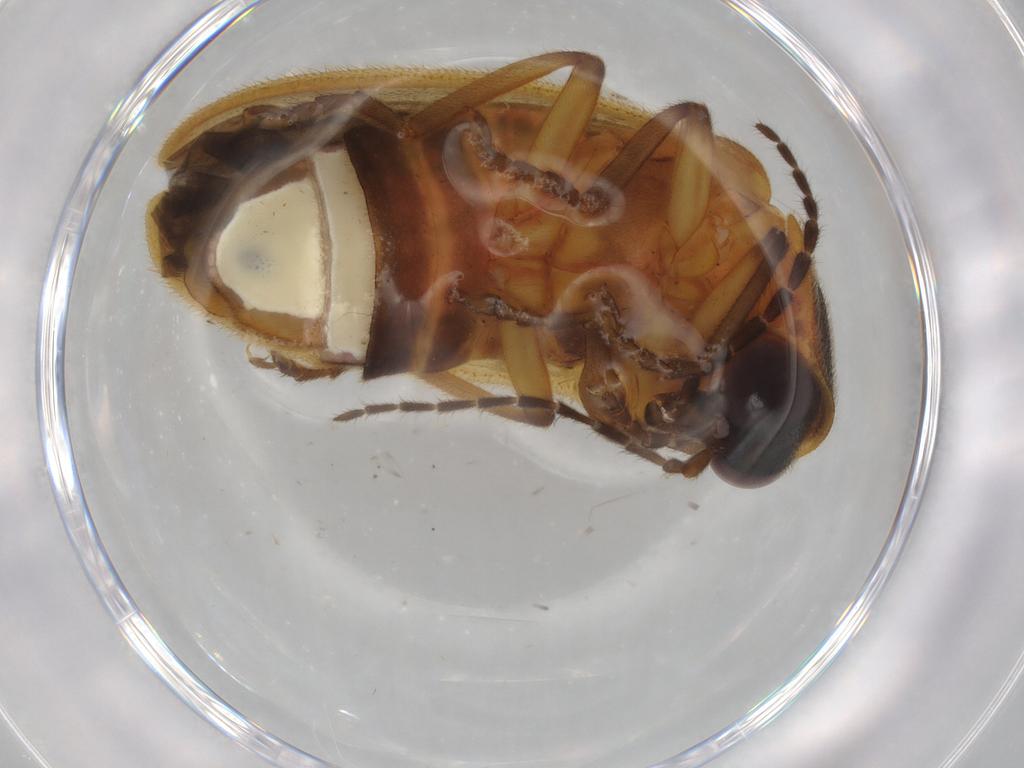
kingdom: Animalia
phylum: Arthropoda
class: Insecta
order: Coleoptera
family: Lampyridae
